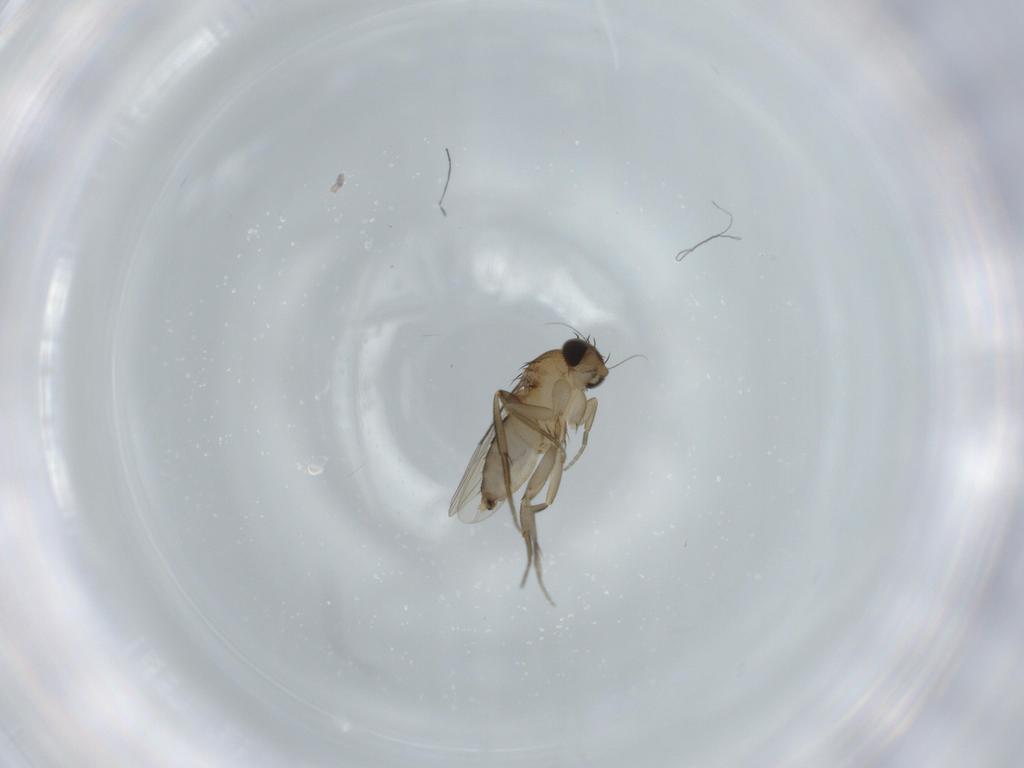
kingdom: Animalia
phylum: Arthropoda
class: Insecta
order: Diptera
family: Phoridae
